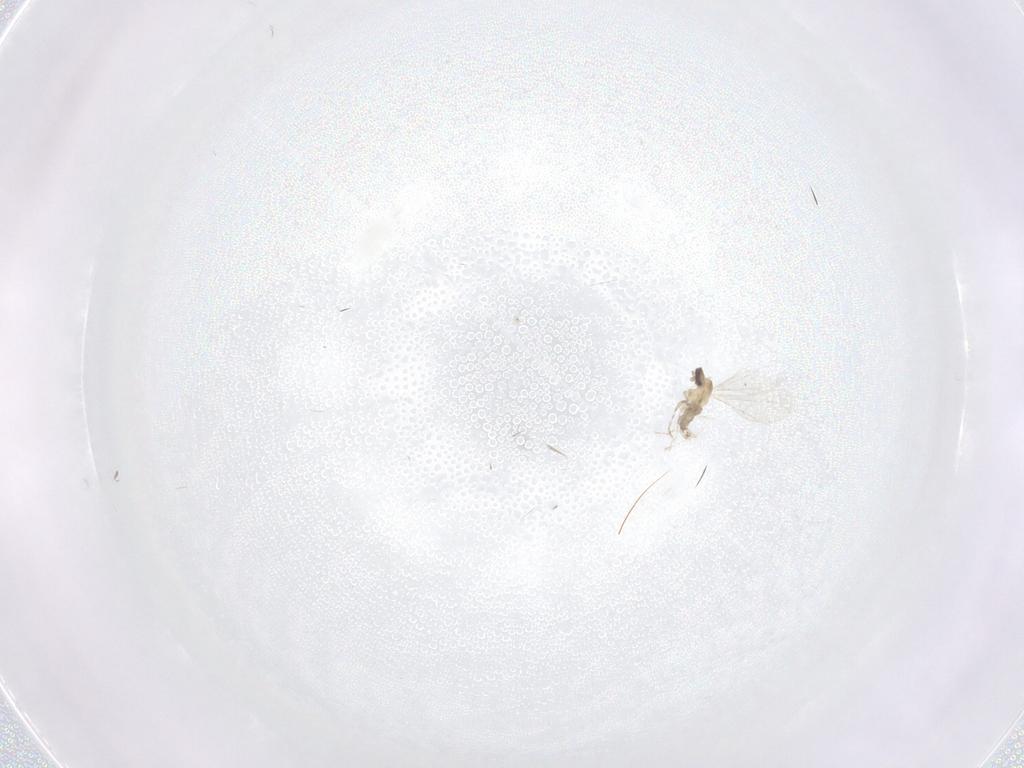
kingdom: Animalia
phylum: Arthropoda
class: Insecta
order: Diptera
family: Cecidomyiidae
